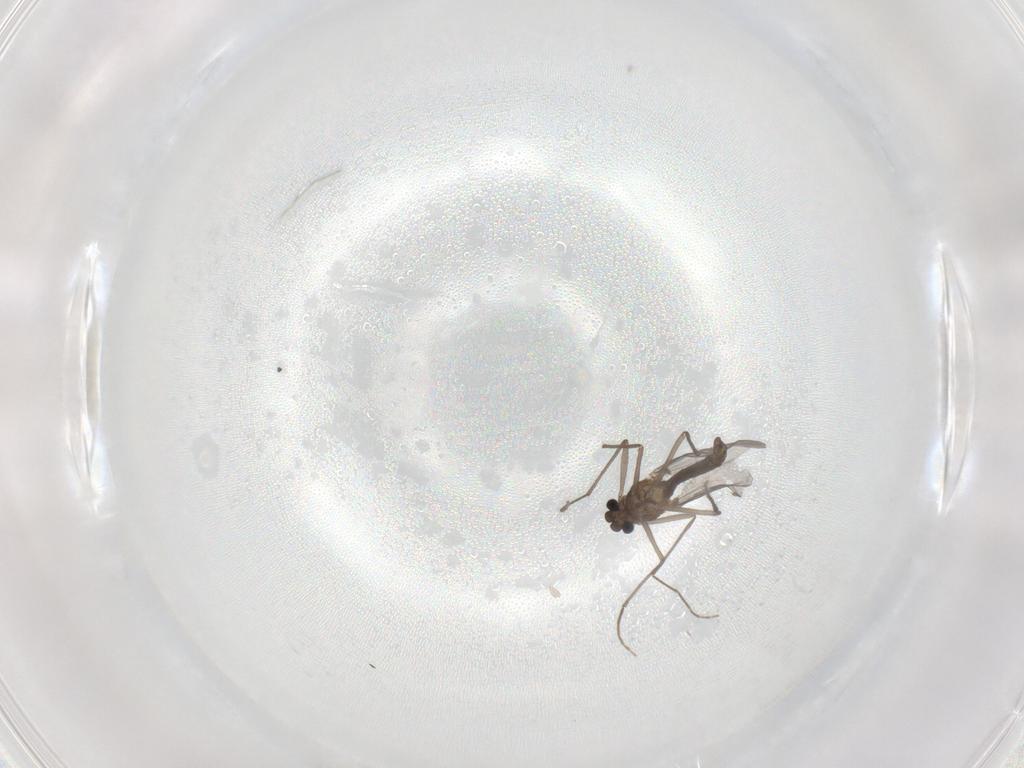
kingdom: Animalia
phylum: Arthropoda
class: Insecta
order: Diptera
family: Chironomidae
